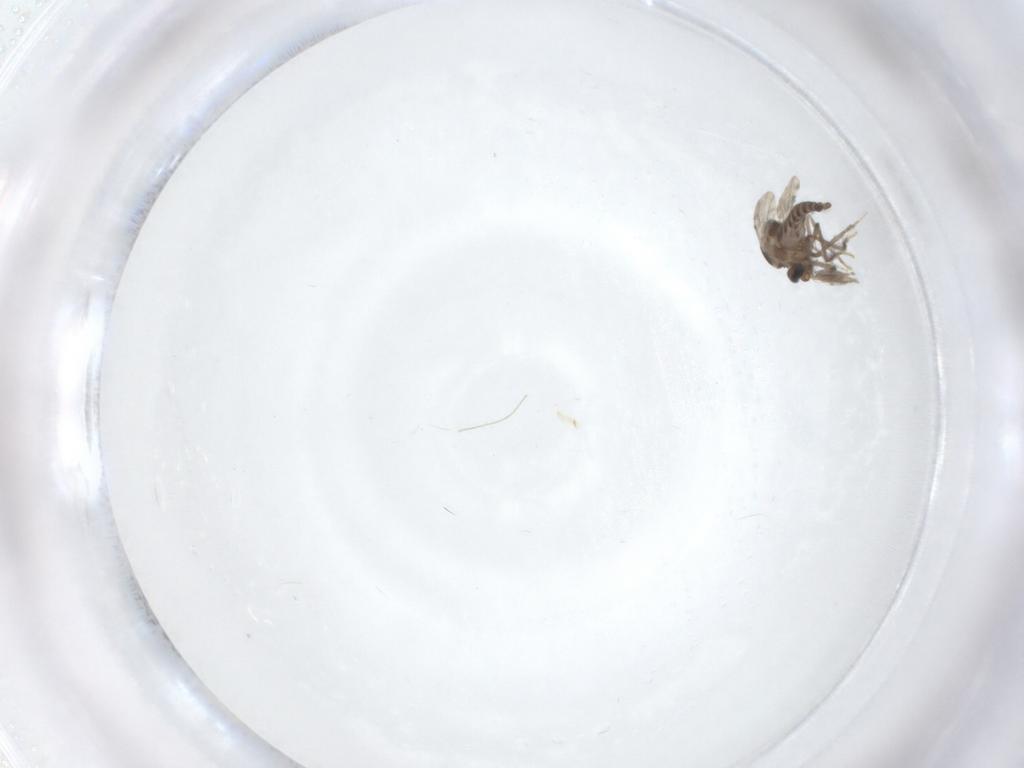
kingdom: Animalia
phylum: Arthropoda
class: Insecta
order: Diptera
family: Ceratopogonidae
